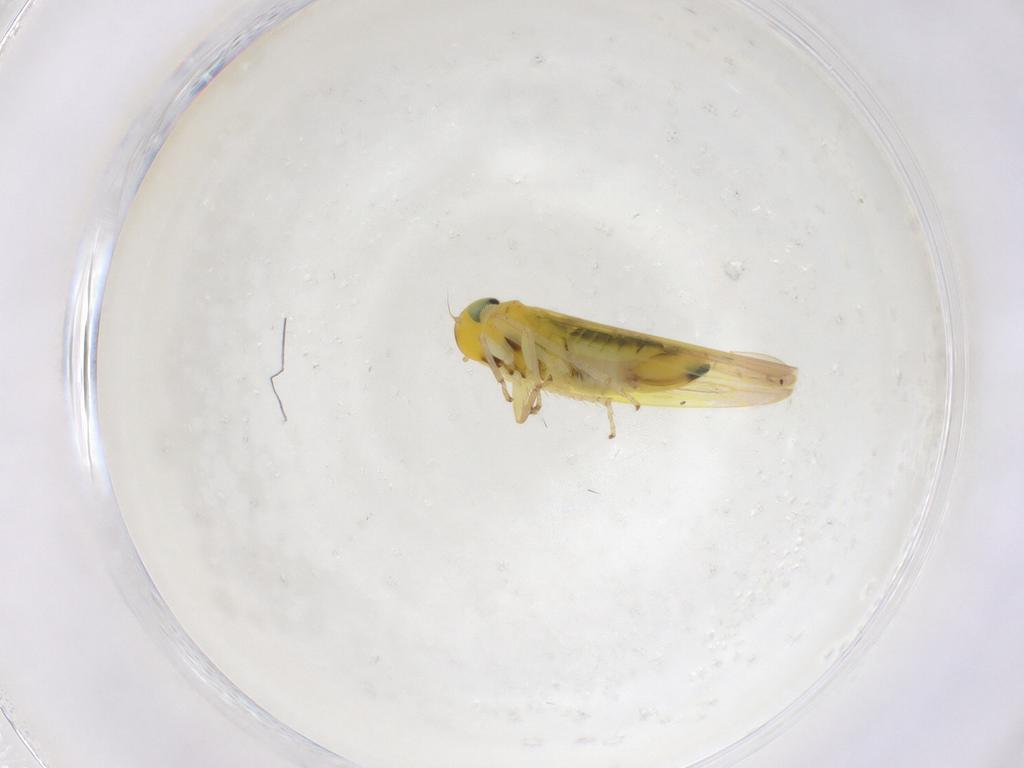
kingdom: Animalia
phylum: Arthropoda
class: Insecta
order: Hemiptera
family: Cicadellidae
